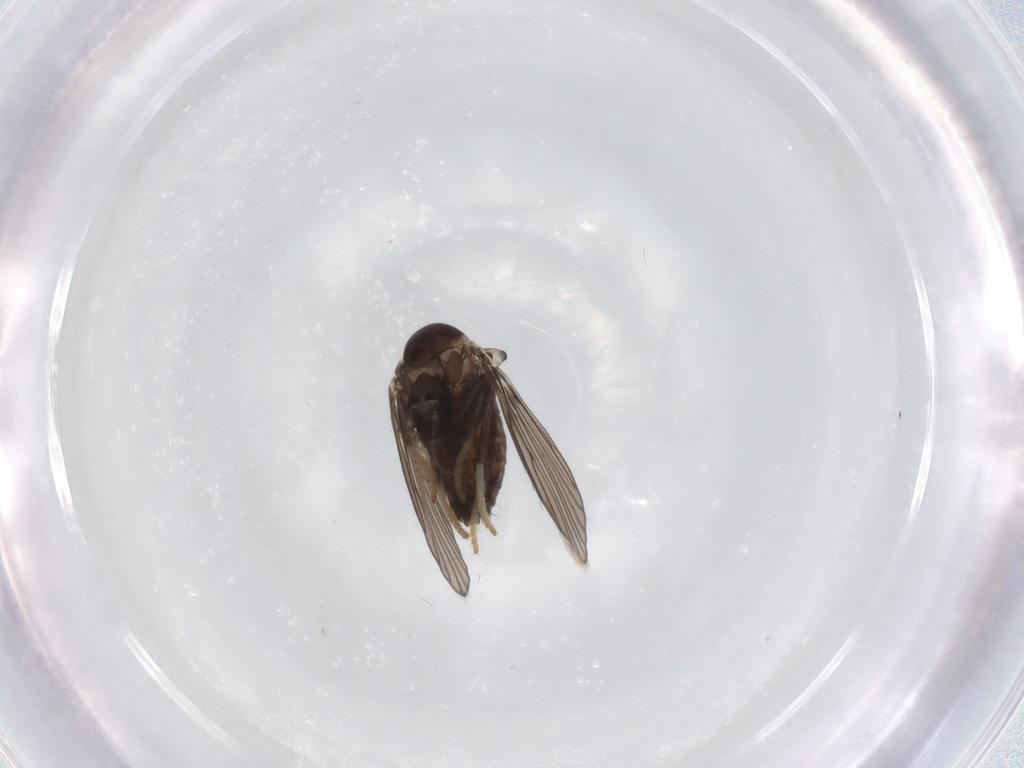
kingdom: Animalia
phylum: Arthropoda
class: Insecta
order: Diptera
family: Psychodidae
